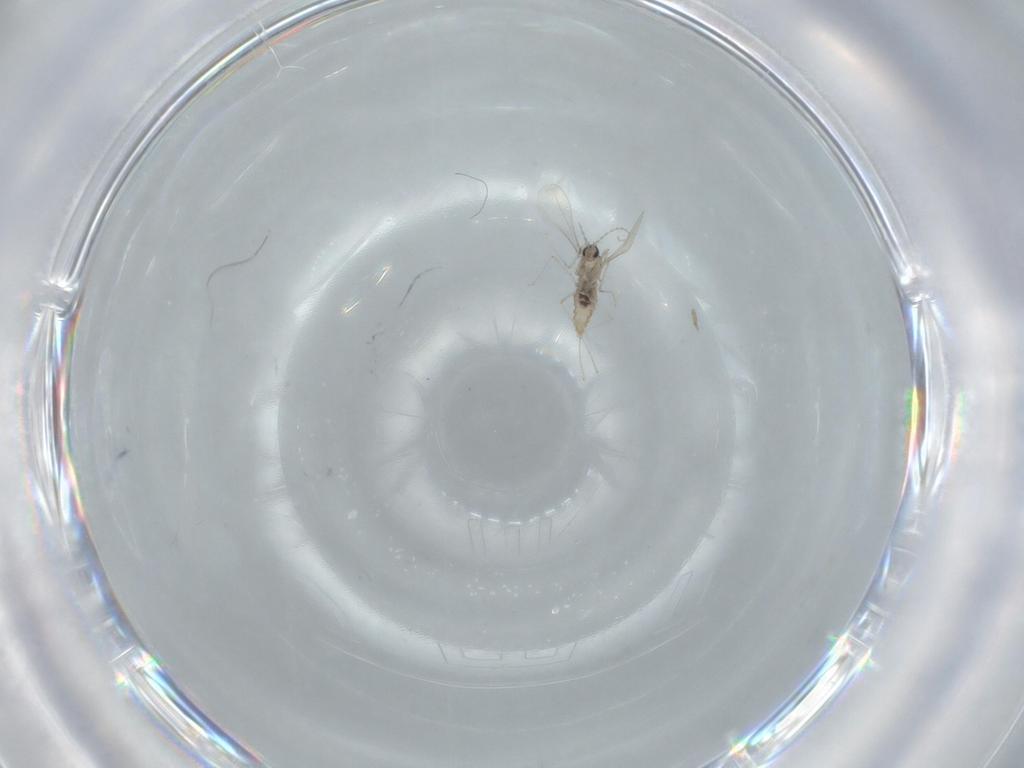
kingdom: Animalia
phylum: Arthropoda
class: Insecta
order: Diptera
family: Cecidomyiidae
